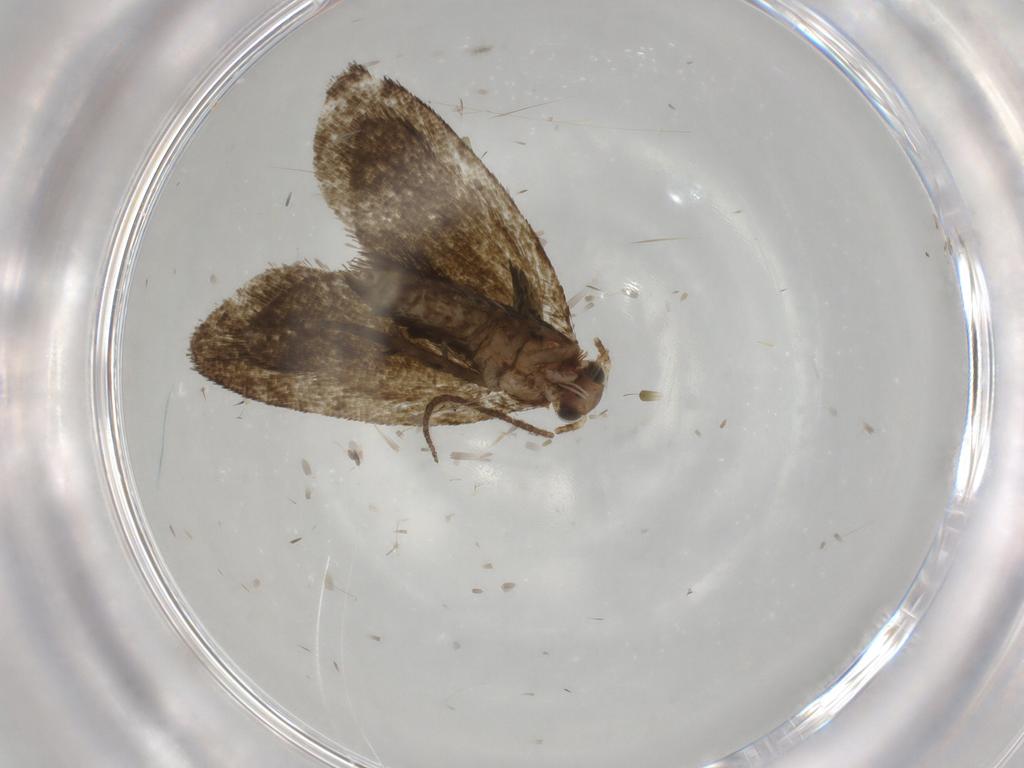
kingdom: Animalia
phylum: Arthropoda
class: Insecta
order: Lepidoptera
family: Tortricidae
